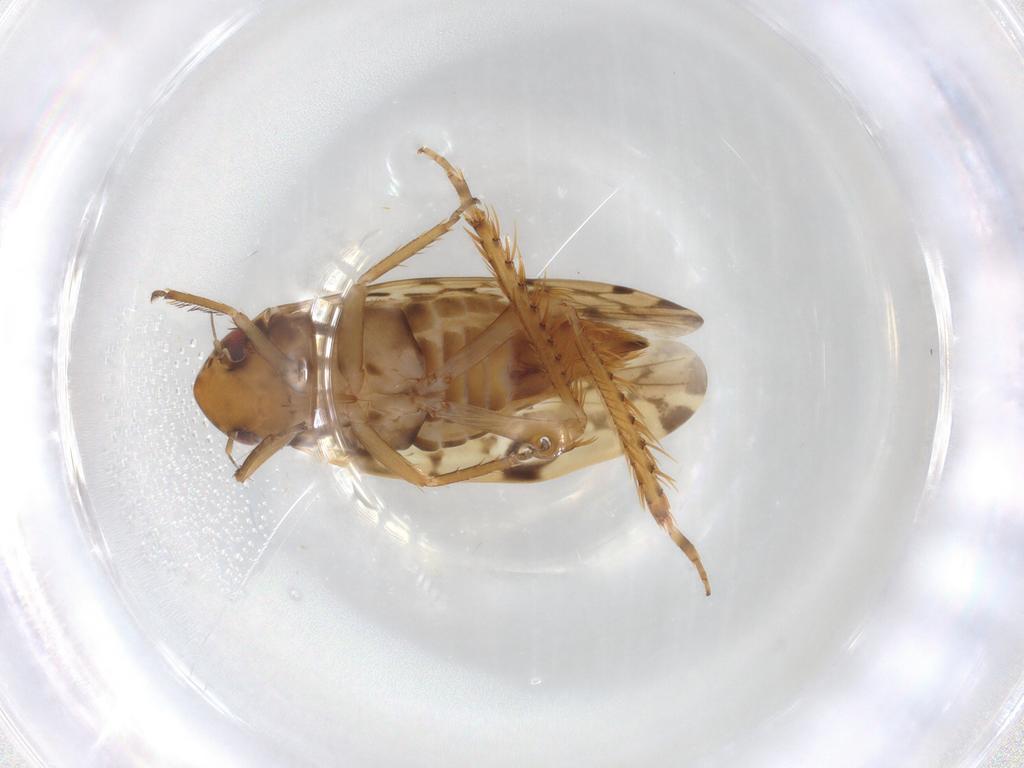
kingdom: Animalia
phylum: Arthropoda
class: Insecta
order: Hemiptera
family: Cicadellidae
